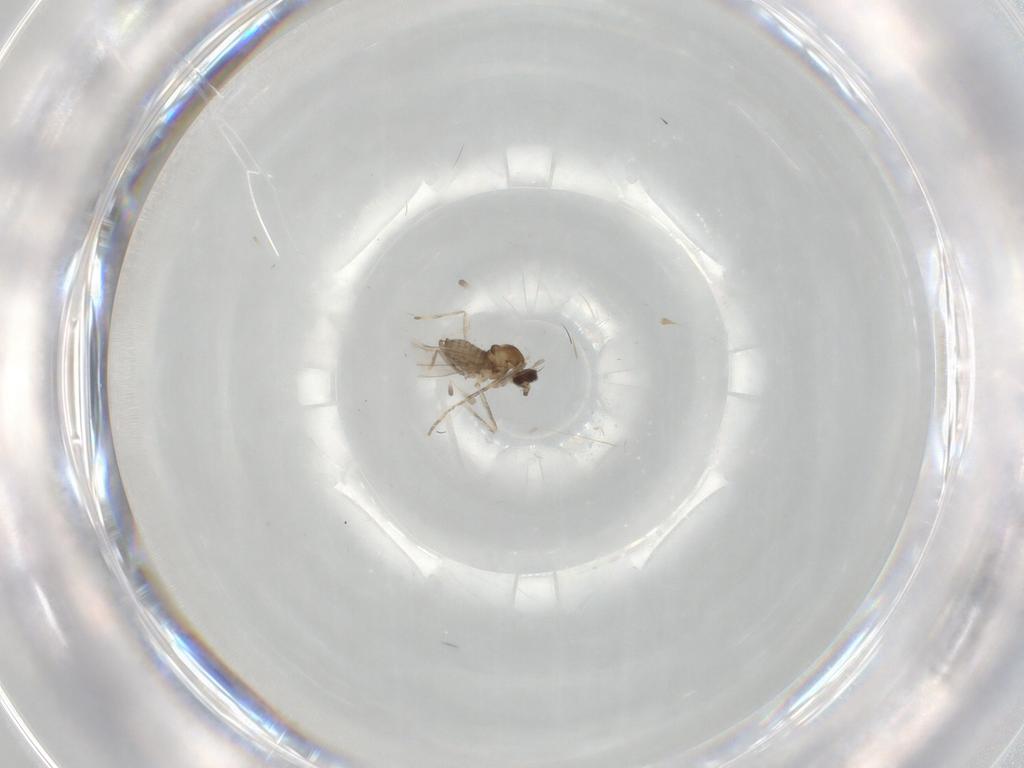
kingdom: Animalia
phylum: Arthropoda
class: Insecta
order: Diptera
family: Cecidomyiidae
